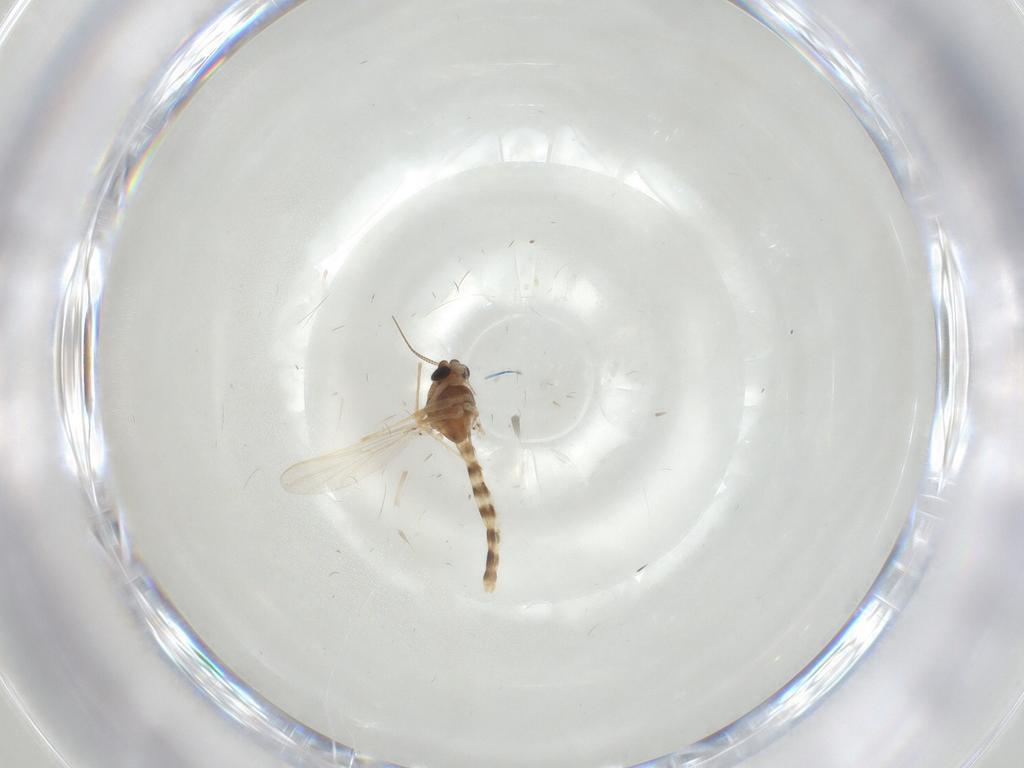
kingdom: Animalia
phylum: Arthropoda
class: Insecta
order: Diptera
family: Chironomidae
